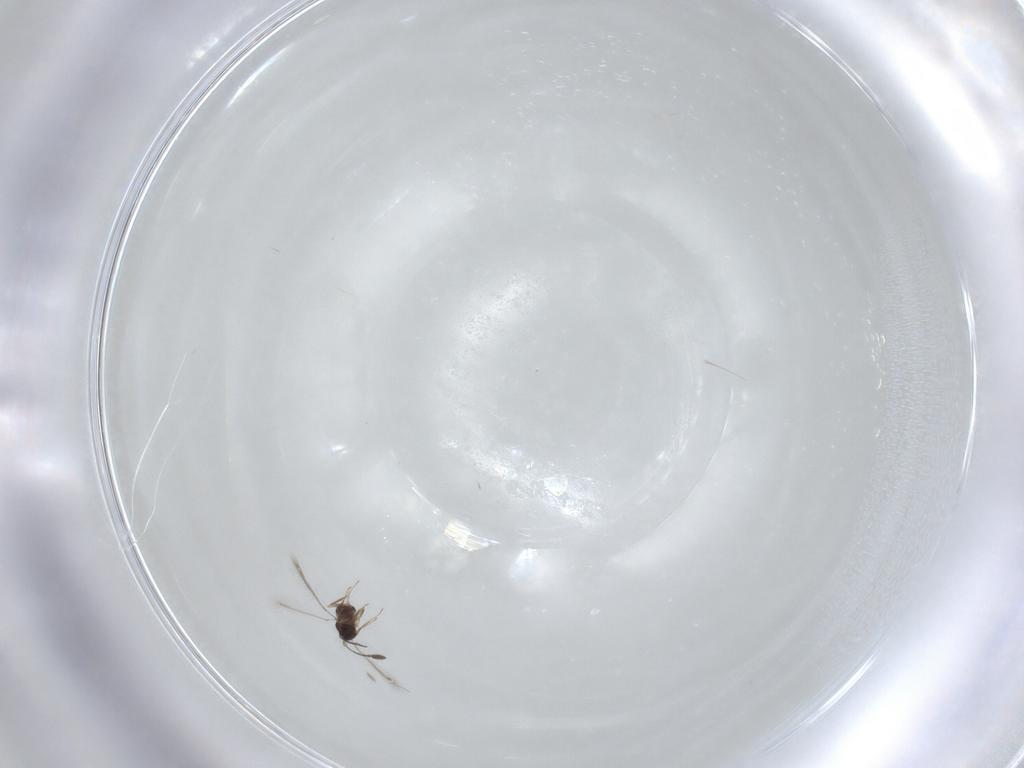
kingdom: Animalia
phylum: Arthropoda
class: Insecta
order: Hymenoptera
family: Mymaridae
